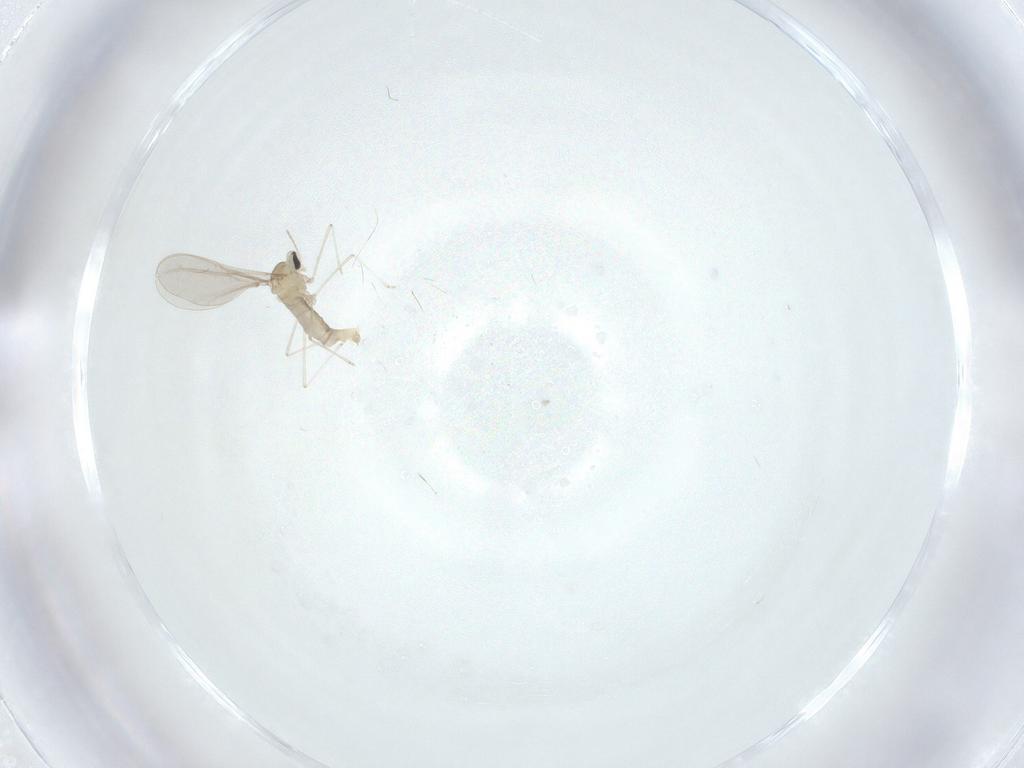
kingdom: Animalia
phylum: Arthropoda
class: Insecta
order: Diptera
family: Cecidomyiidae
